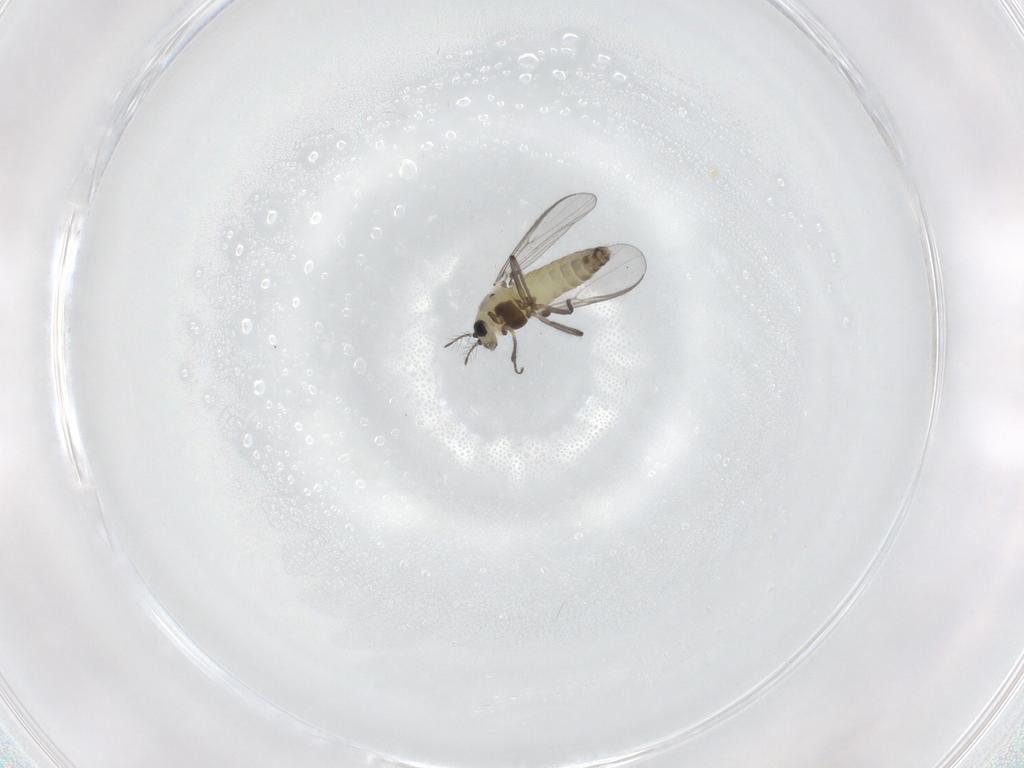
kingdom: Animalia
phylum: Arthropoda
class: Insecta
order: Diptera
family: Chironomidae
